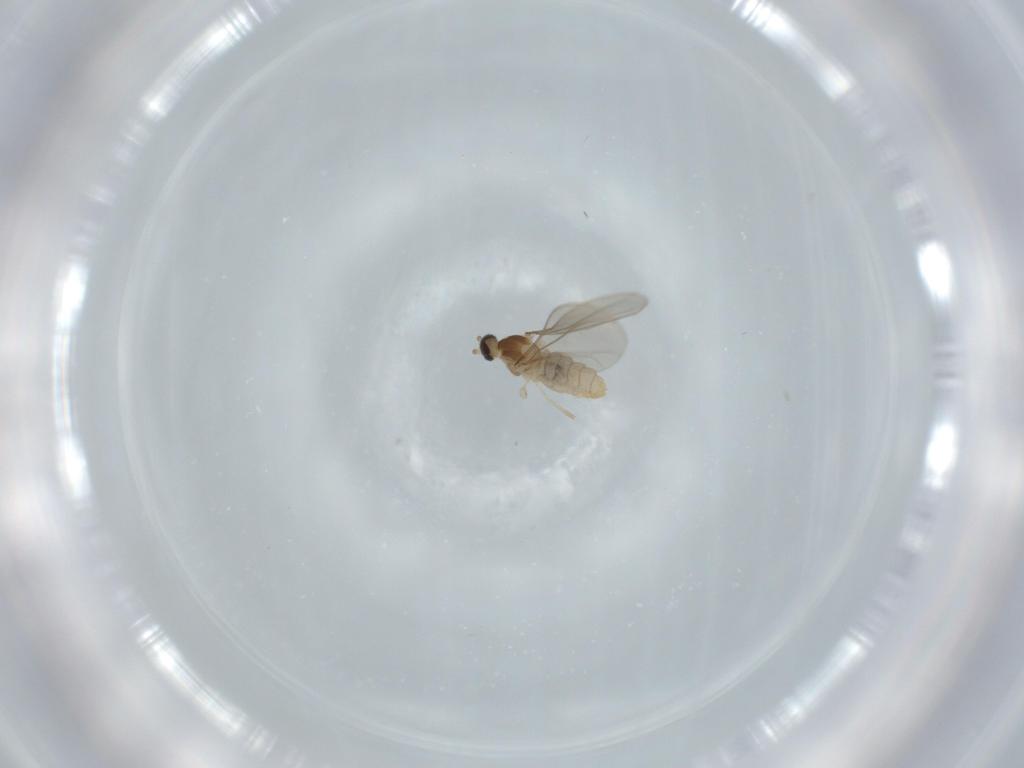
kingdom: Animalia
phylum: Arthropoda
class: Insecta
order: Diptera
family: Cecidomyiidae
